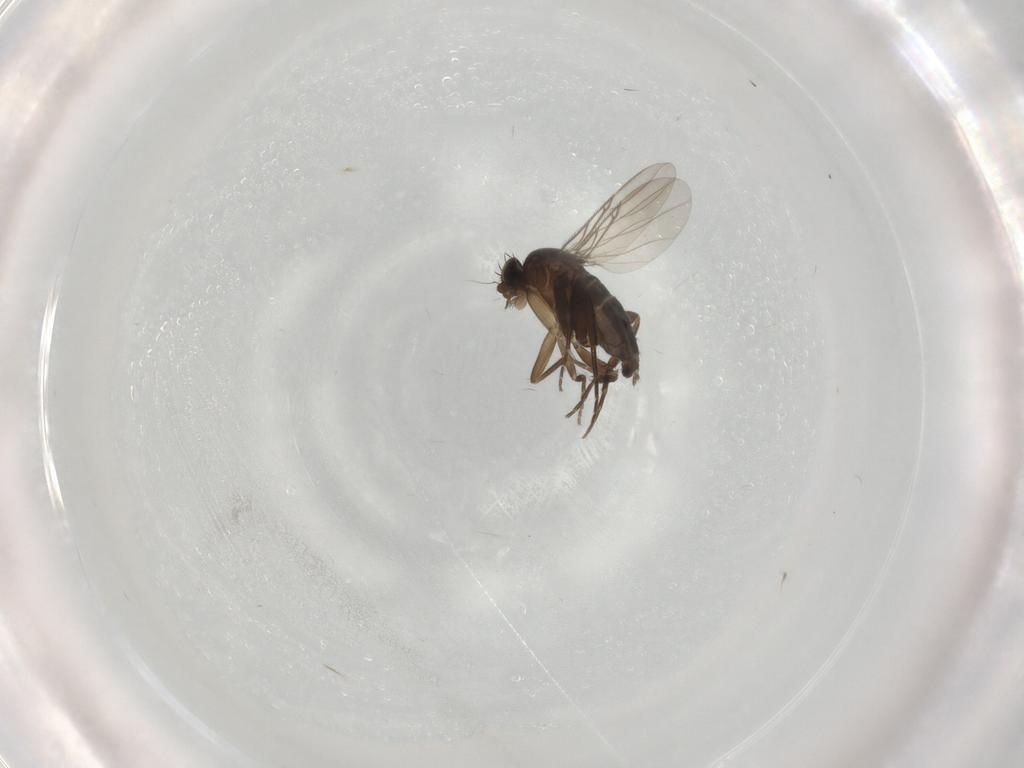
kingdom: Animalia
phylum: Arthropoda
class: Insecta
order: Diptera
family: Phoridae
